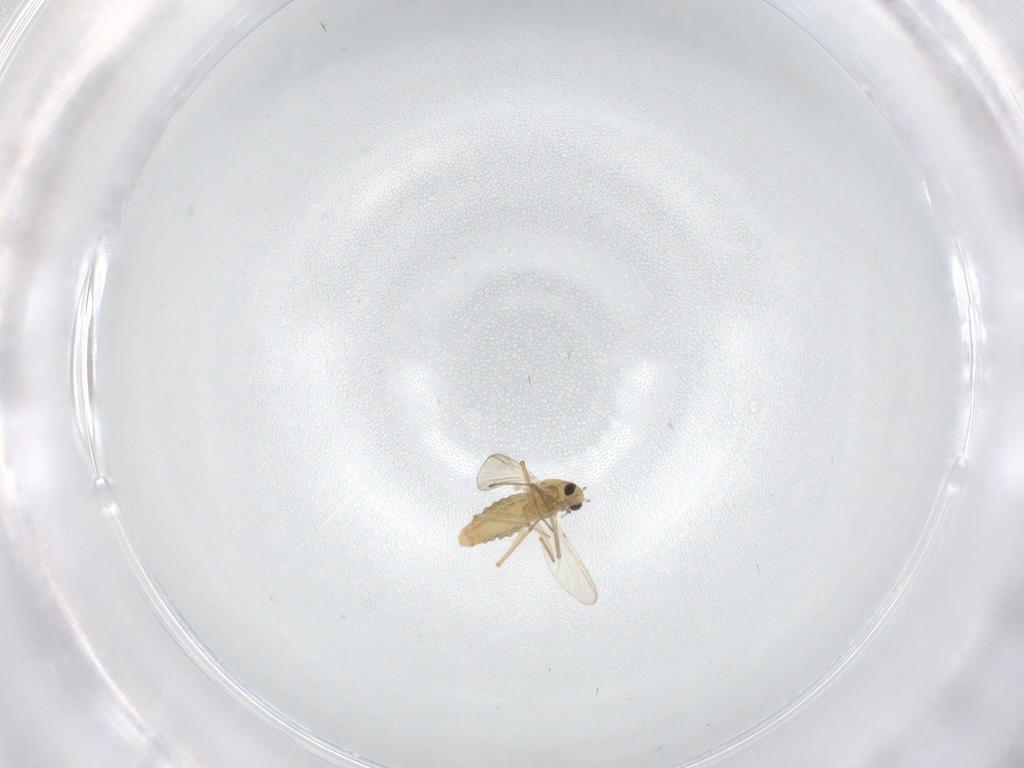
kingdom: Animalia
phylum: Arthropoda
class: Insecta
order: Diptera
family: Chironomidae
